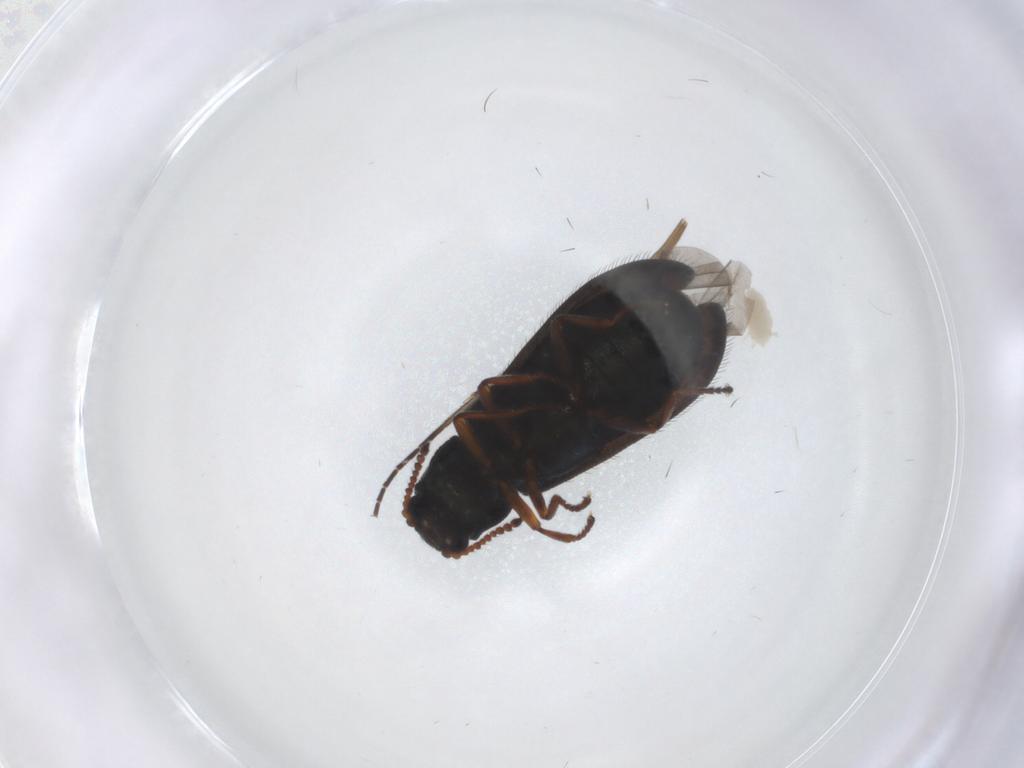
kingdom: Animalia
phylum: Arthropoda
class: Insecta
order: Coleoptera
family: Melyridae
